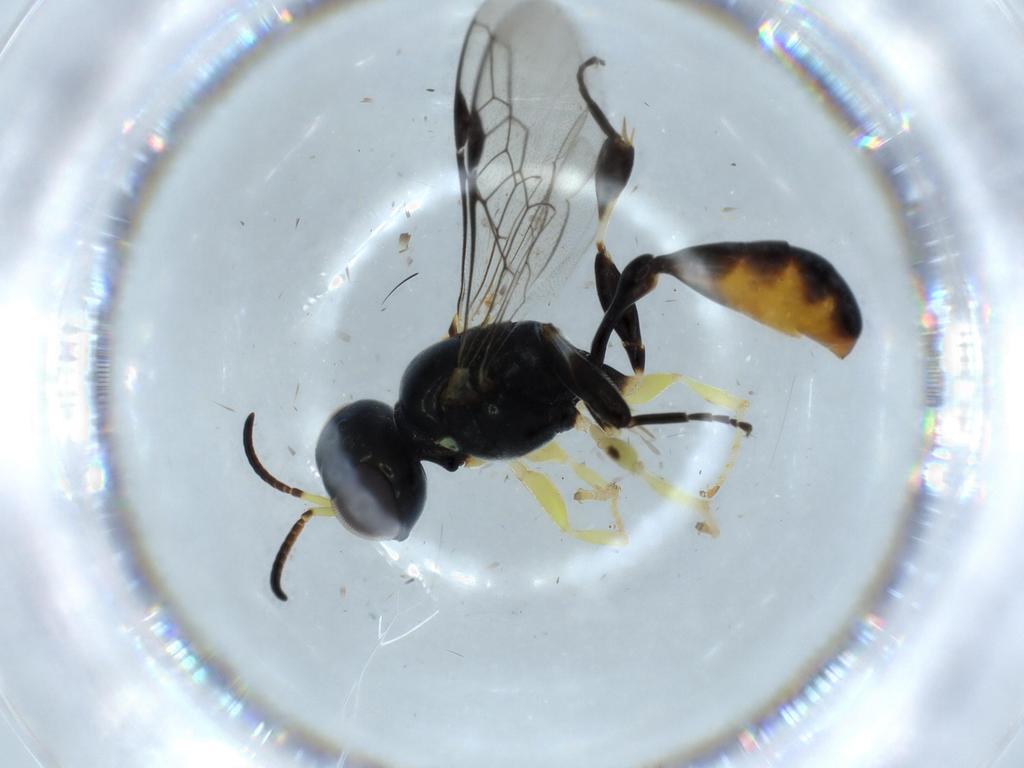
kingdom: Animalia
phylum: Arthropoda
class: Insecta
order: Hymenoptera
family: Crabronidae
